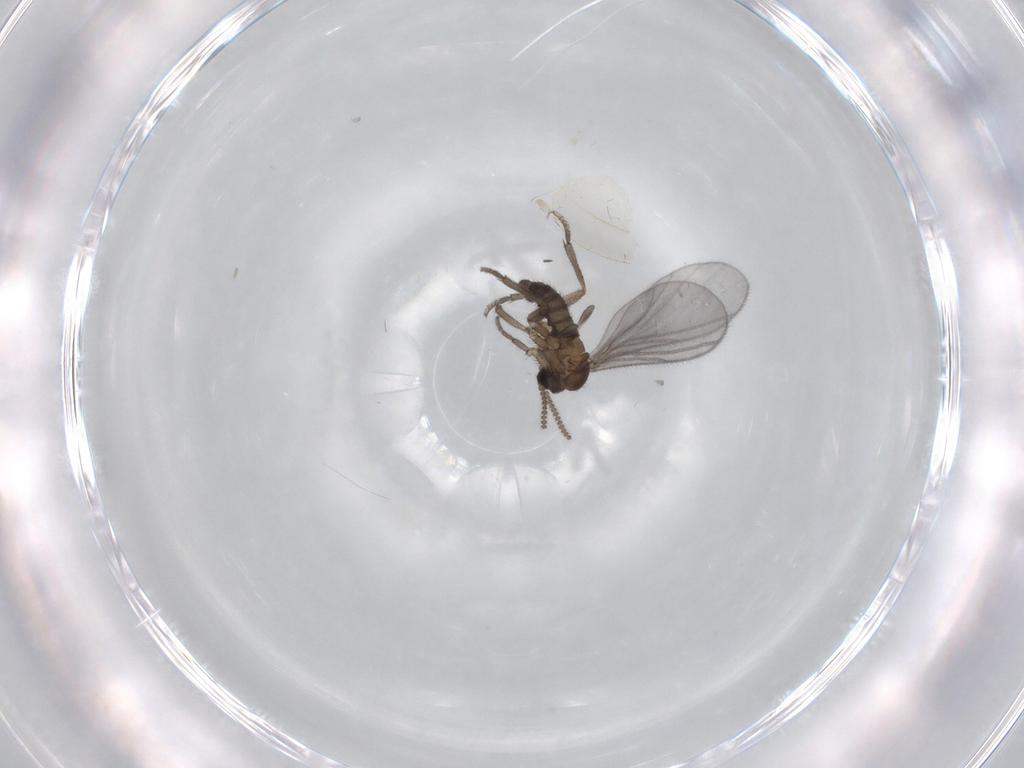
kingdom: Animalia
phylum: Arthropoda
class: Insecta
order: Diptera
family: Sciaridae
